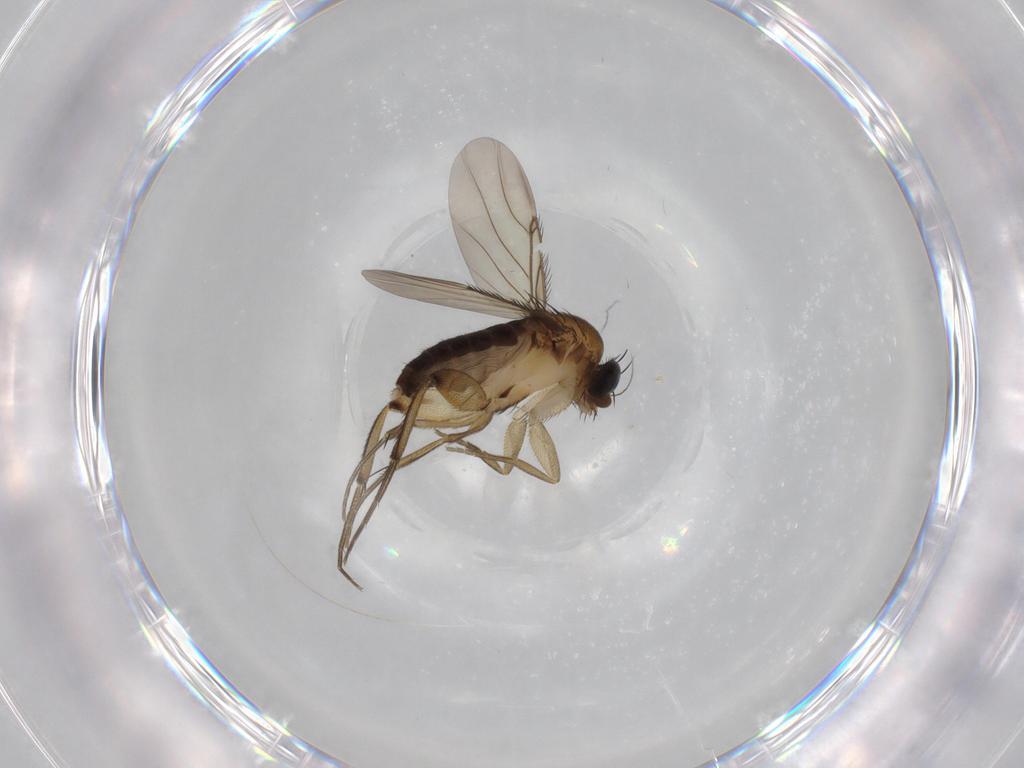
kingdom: Animalia
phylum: Arthropoda
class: Insecta
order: Diptera
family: Phoridae
